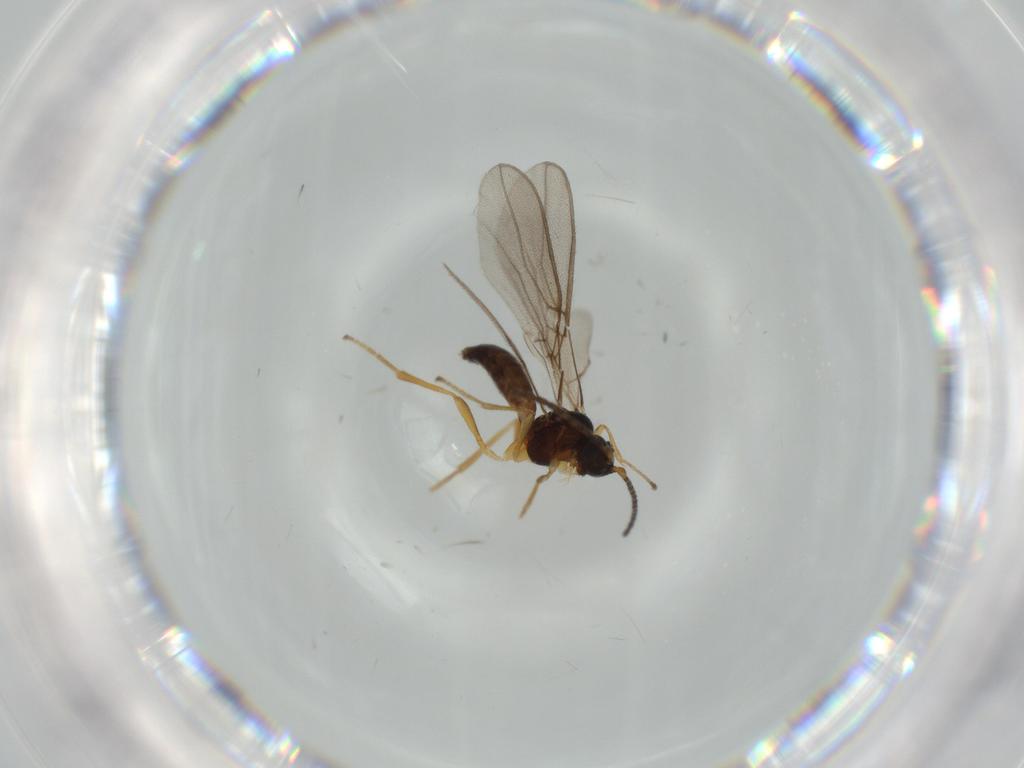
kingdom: Animalia
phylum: Arthropoda
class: Insecta
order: Hymenoptera
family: Braconidae
